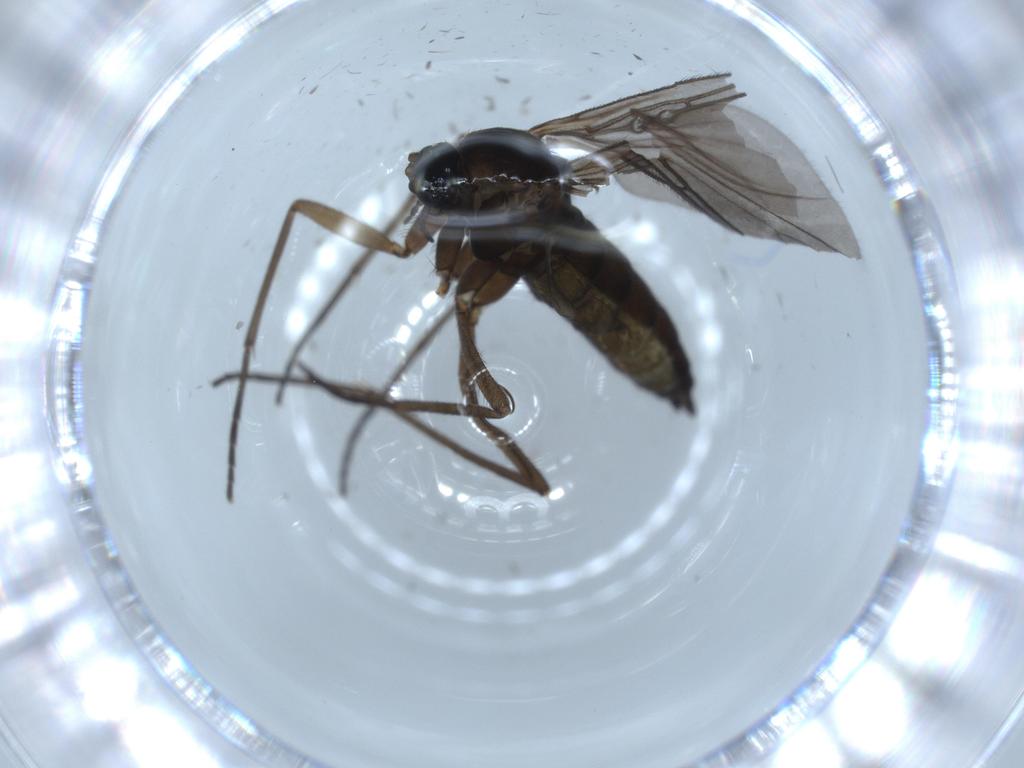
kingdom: Animalia
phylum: Arthropoda
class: Insecta
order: Diptera
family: Sciaridae
